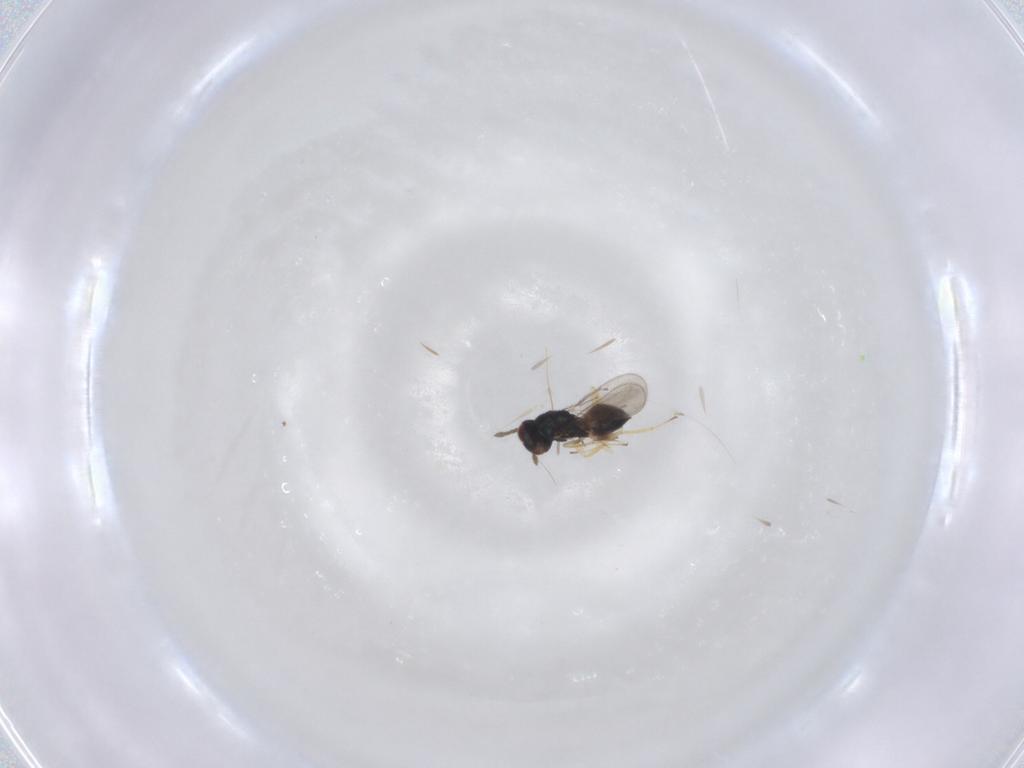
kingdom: Animalia
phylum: Arthropoda
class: Insecta
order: Hymenoptera
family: Eulophidae
